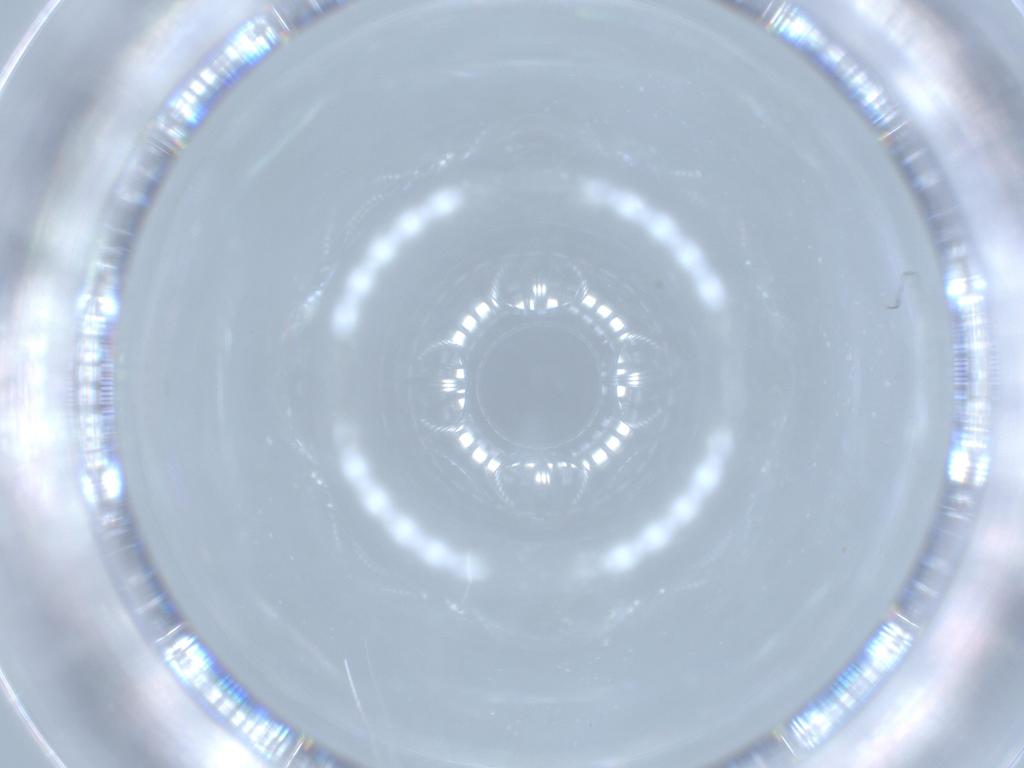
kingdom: Animalia
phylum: Arthropoda
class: Insecta
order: Diptera
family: Cecidomyiidae
